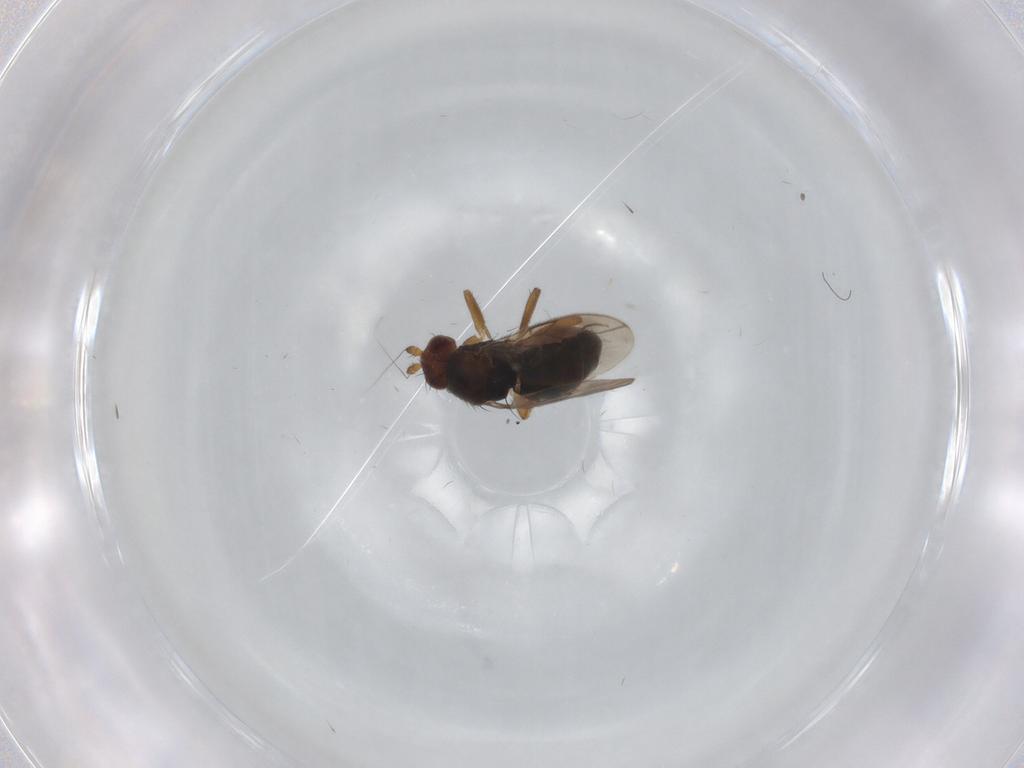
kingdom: Animalia
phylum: Arthropoda
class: Insecta
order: Diptera
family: Sphaeroceridae
